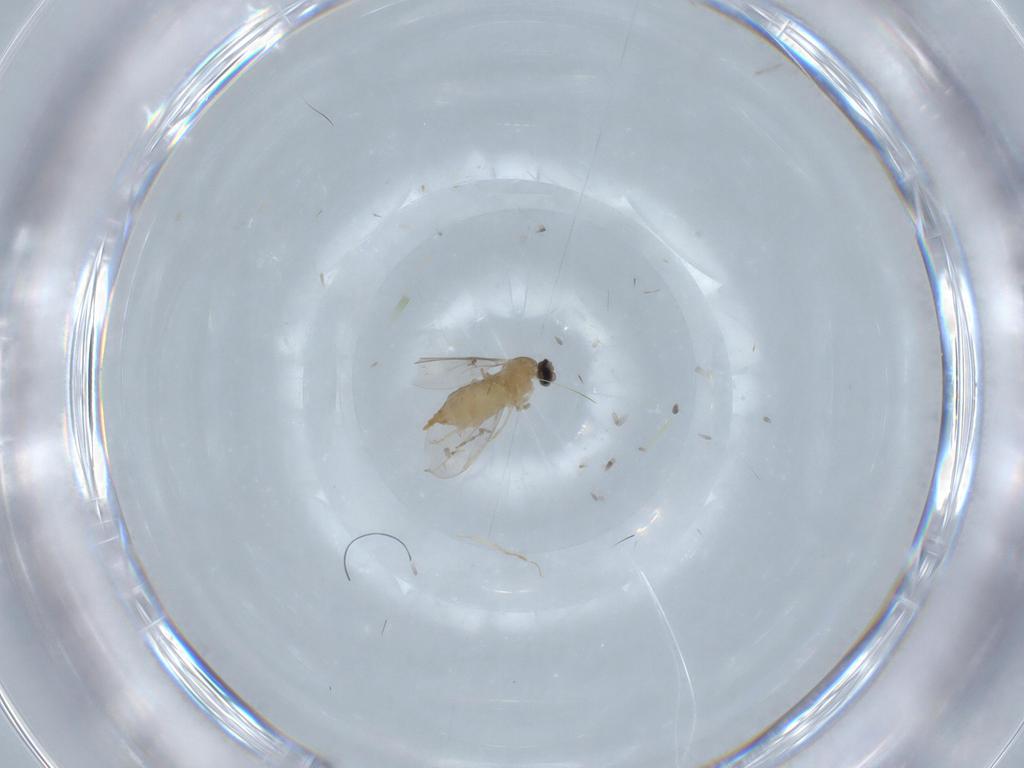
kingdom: Animalia
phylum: Arthropoda
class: Insecta
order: Diptera
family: Cecidomyiidae
